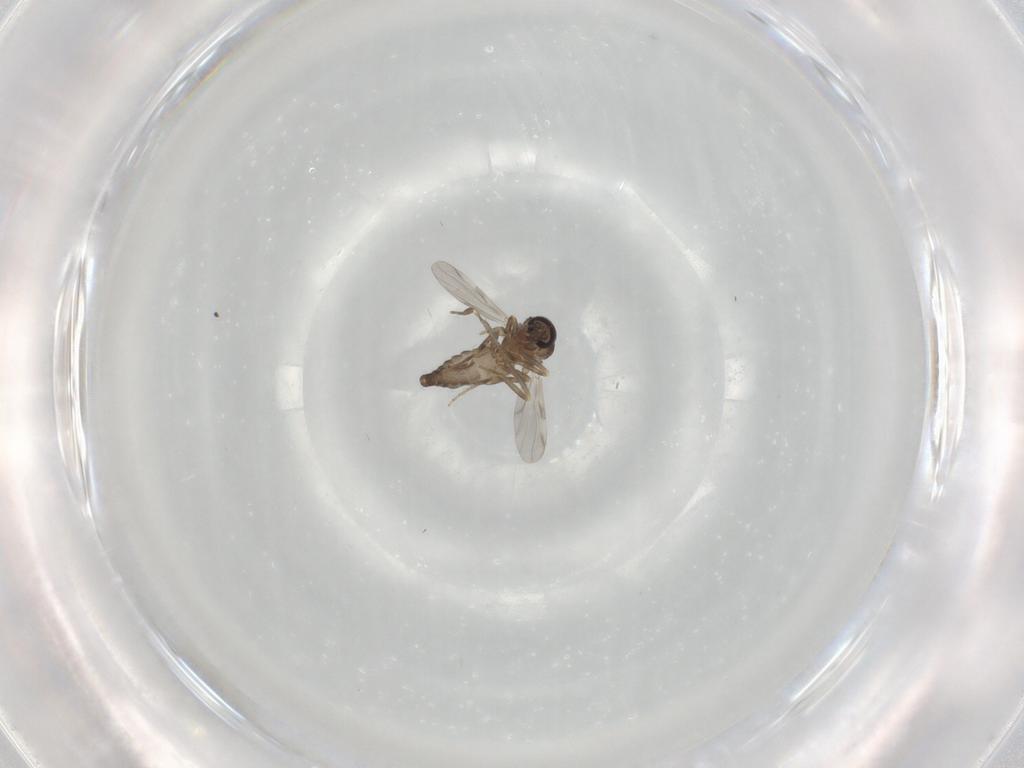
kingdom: Animalia
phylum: Arthropoda
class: Insecta
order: Diptera
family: Ceratopogonidae
